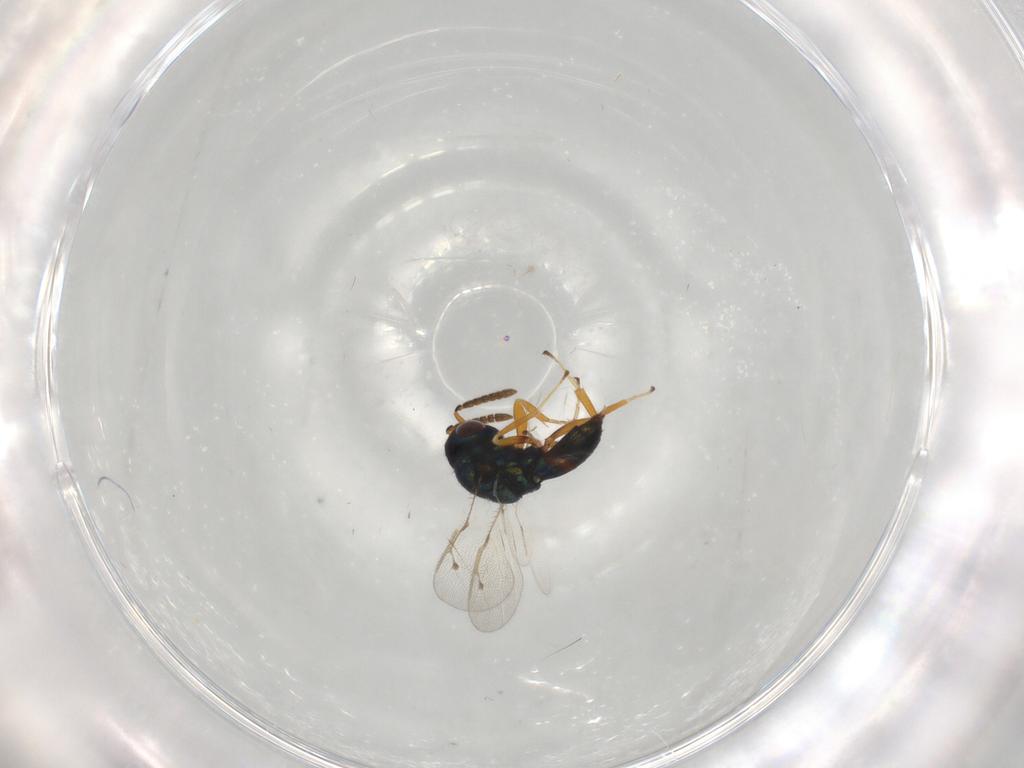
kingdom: Animalia
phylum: Arthropoda
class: Insecta
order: Hymenoptera
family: Pteromalidae
